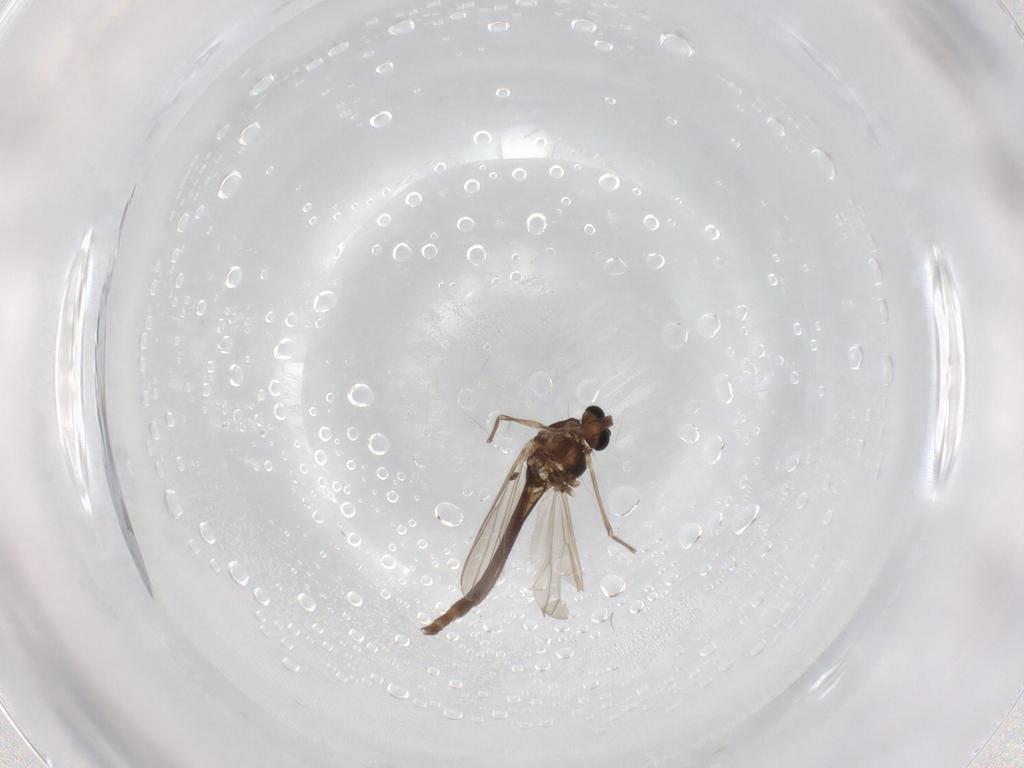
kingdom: Animalia
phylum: Arthropoda
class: Insecta
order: Diptera
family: Chironomidae
